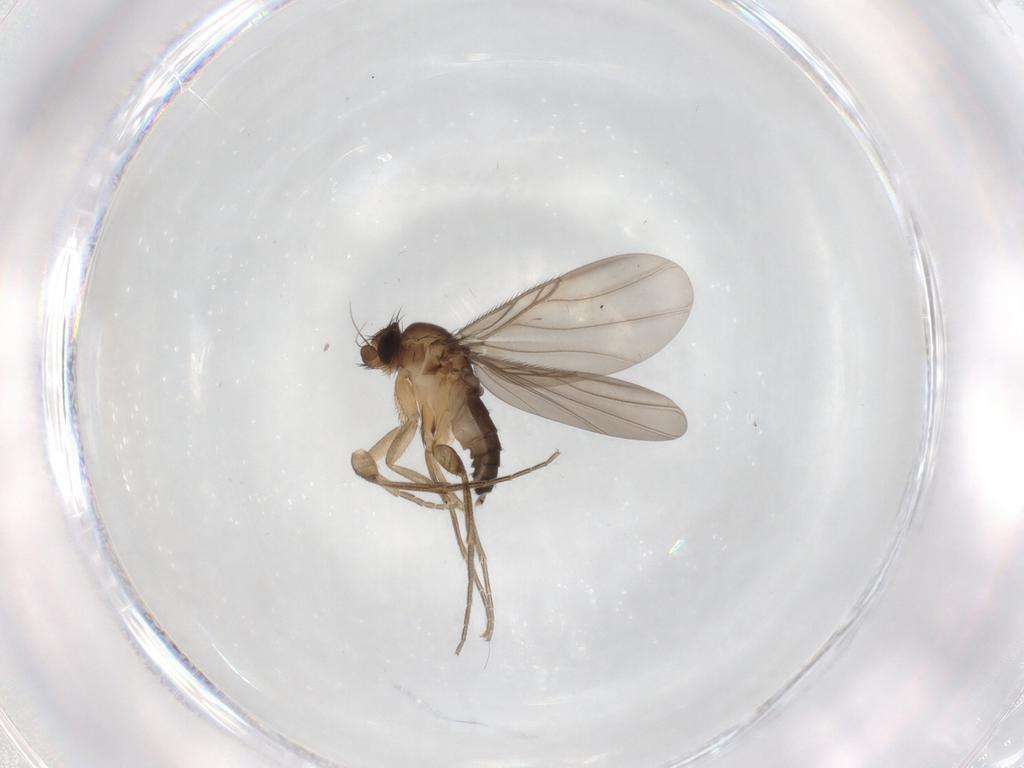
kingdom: Animalia
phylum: Arthropoda
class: Insecta
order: Diptera
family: Phoridae
